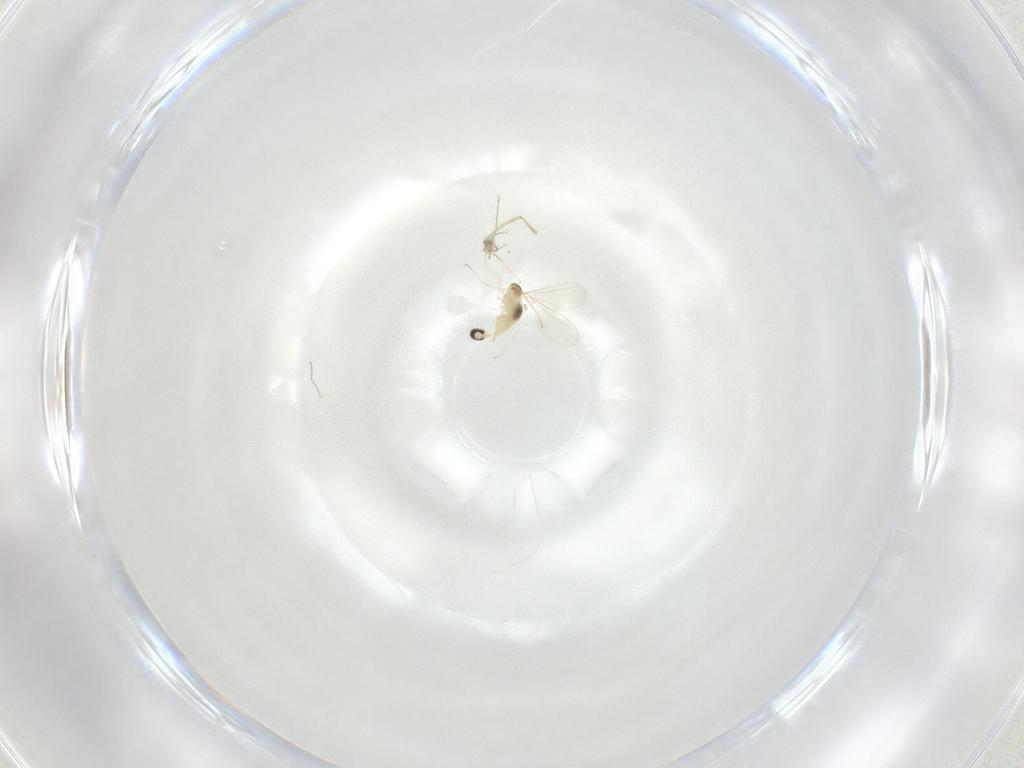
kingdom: Animalia
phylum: Arthropoda
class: Insecta
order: Diptera
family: Cecidomyiidae
